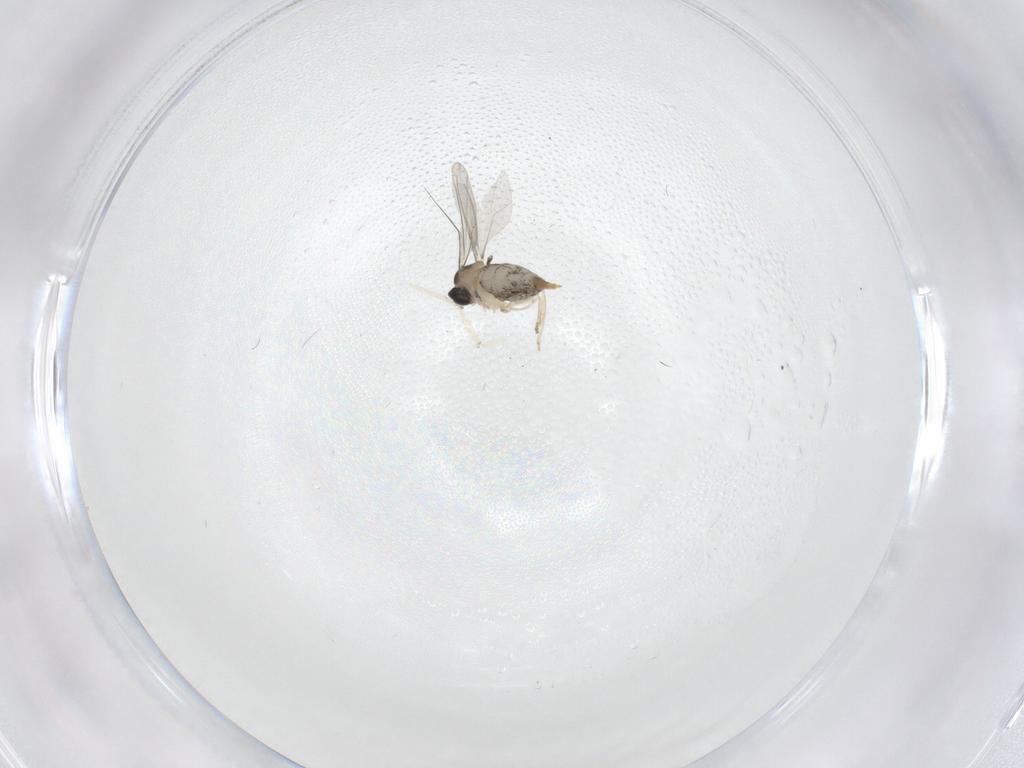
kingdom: Animalia
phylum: Arthropoda
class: Insecta
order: Diptera
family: Cecidomyiidae
